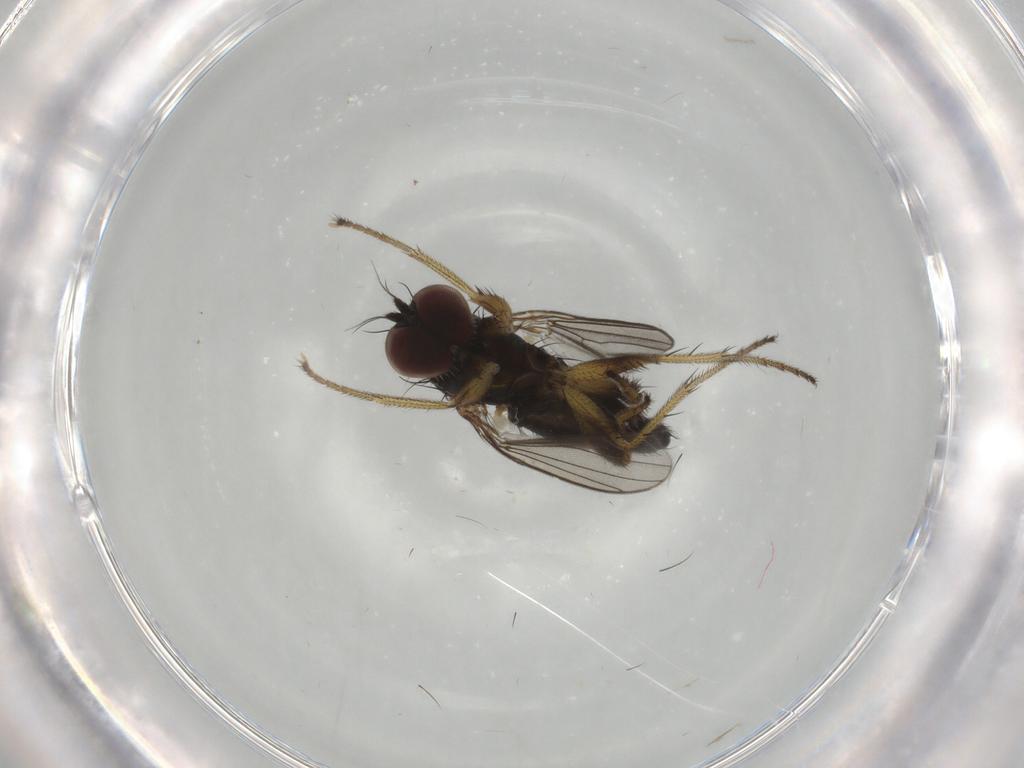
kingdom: Animalia
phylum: Arthropoda
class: Insecta
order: Diptera
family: Dolichopodidae
